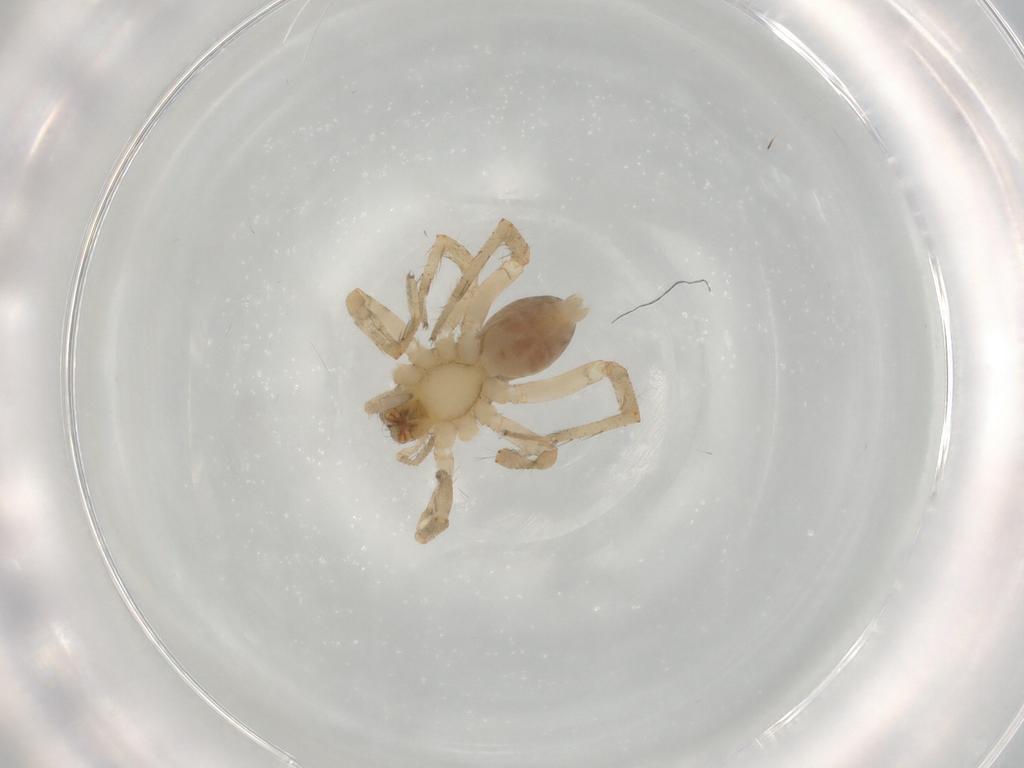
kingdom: Animalia
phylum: Arthropoda
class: Arachnida
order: Araneae
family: Anyphaenidae
